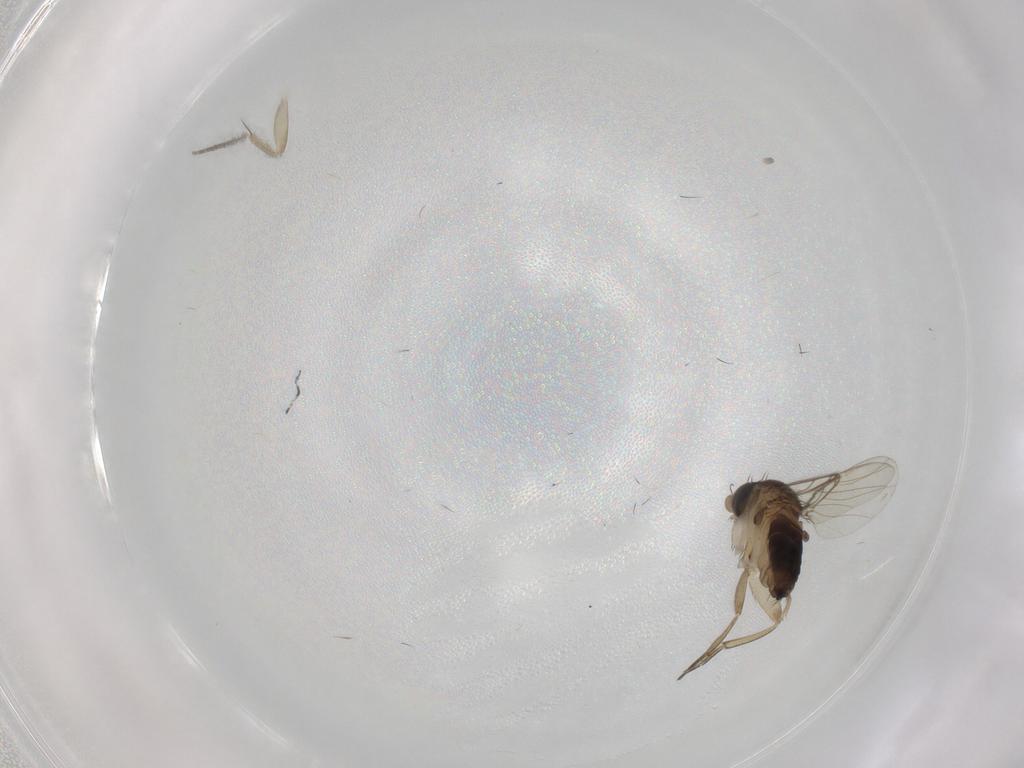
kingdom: Animalia
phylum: Arthropoda
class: Insecta
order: Diptera
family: Phoridae
